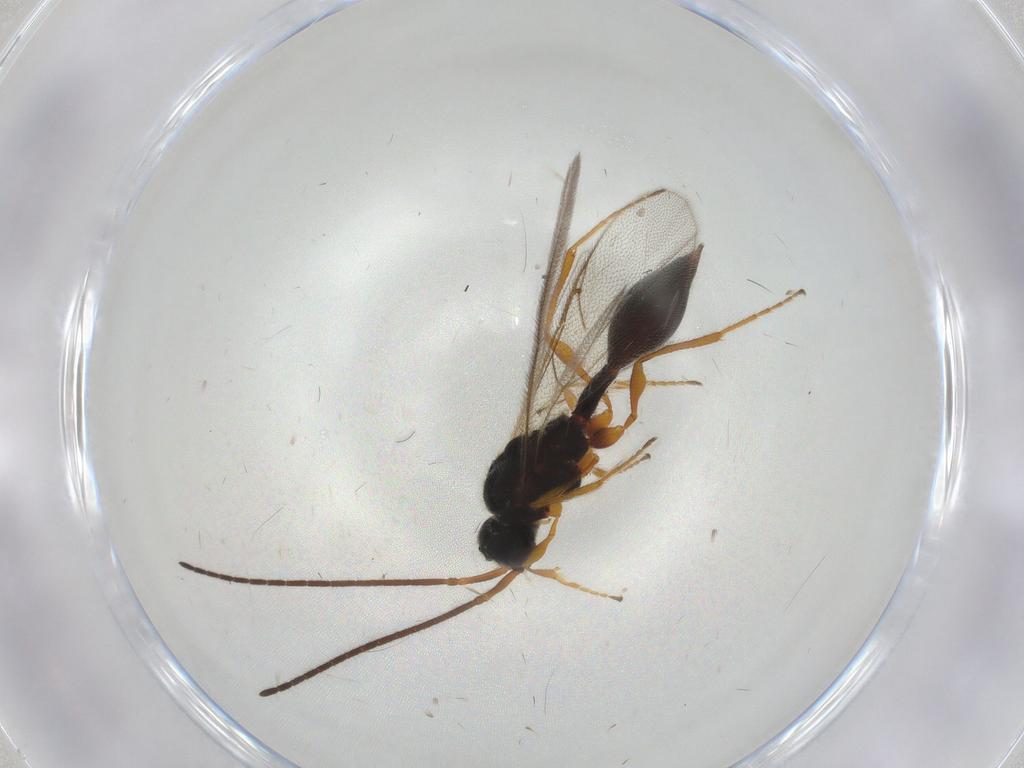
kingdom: Animalia
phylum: Arthropoda
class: Insecta
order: Hymenoptera
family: Diapriidae
